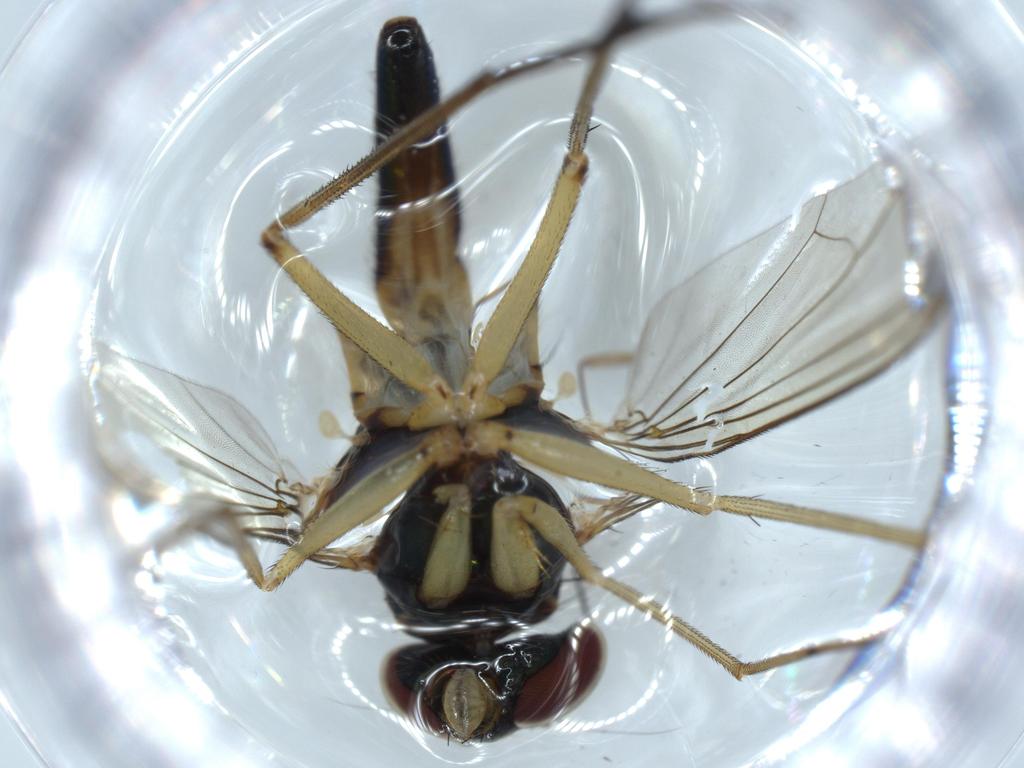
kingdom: Animalia
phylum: Arthropoda
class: Insecta
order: Diptera
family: Dolichopodidae
